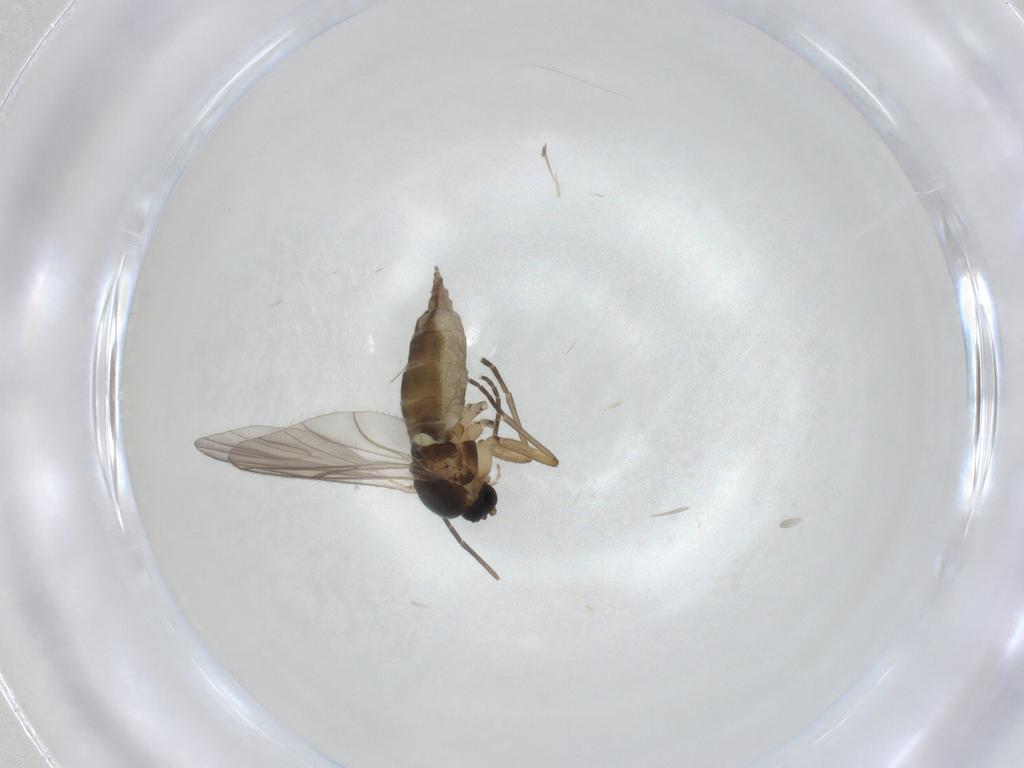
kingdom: Animalia
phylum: Arthropoda
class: Insecta
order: Diptera
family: Sciaridae
